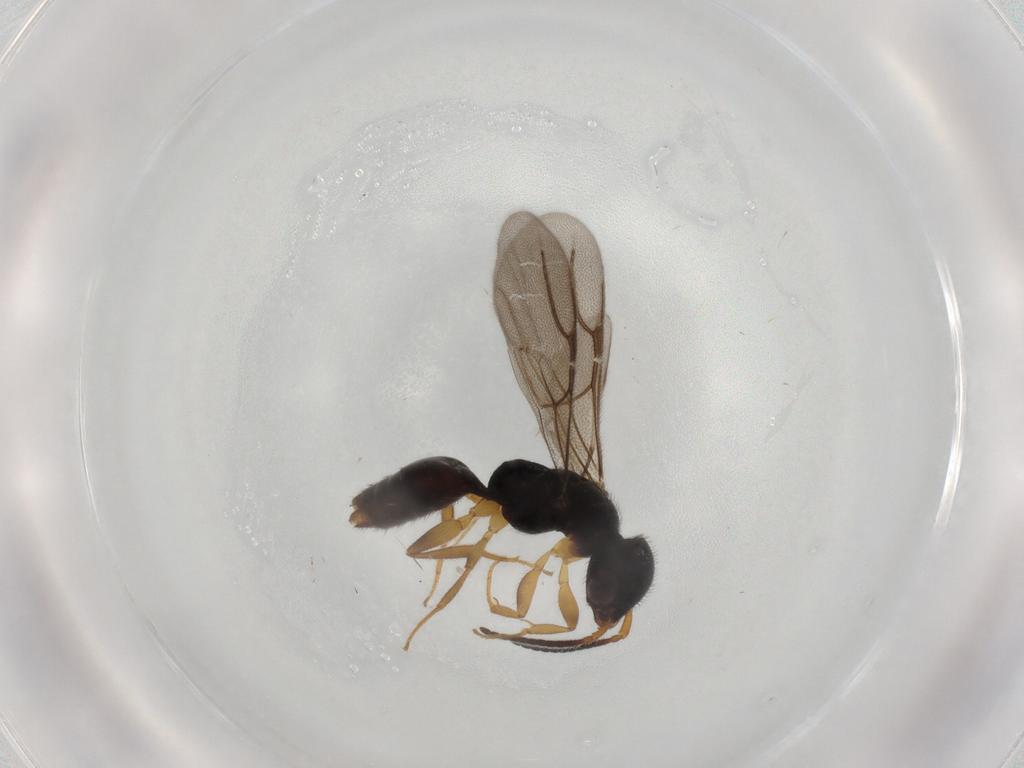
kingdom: Animalia
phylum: Arthropoda
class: Insecta
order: Hymenoptera
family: Bethylidae
